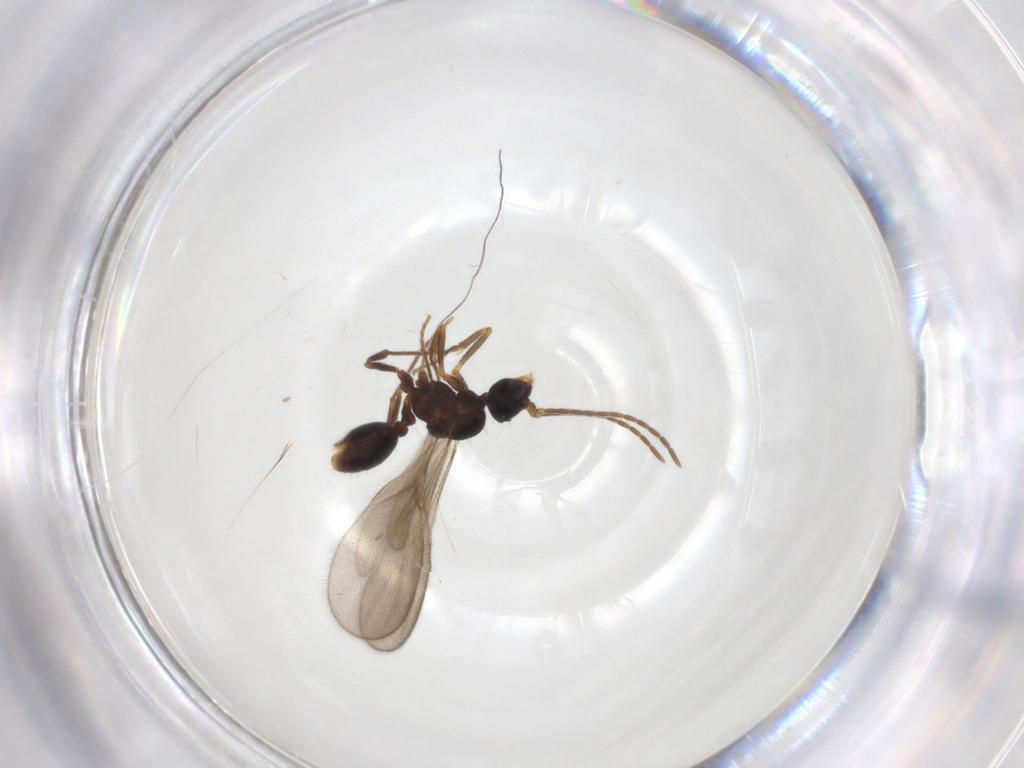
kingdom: Animalia
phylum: Arthropoda
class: Insecta
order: Hymenoptera
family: Formicidae
